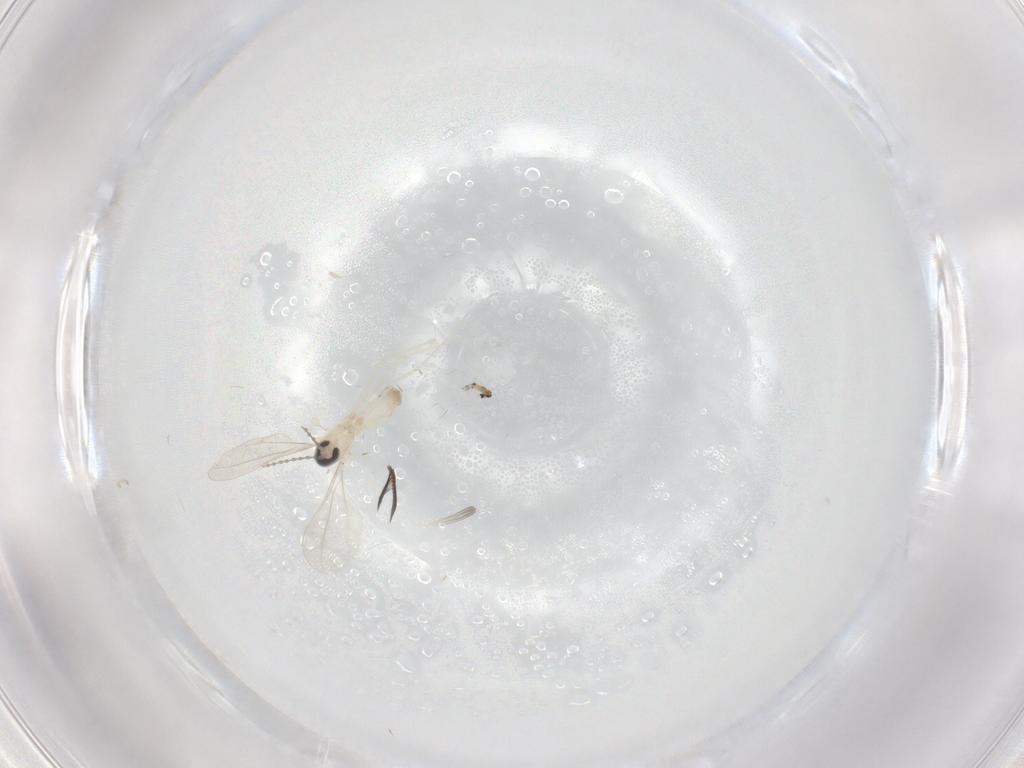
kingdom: Animalia
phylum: Arthropoda
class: Insecta
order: Diptera
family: Chironomidae
